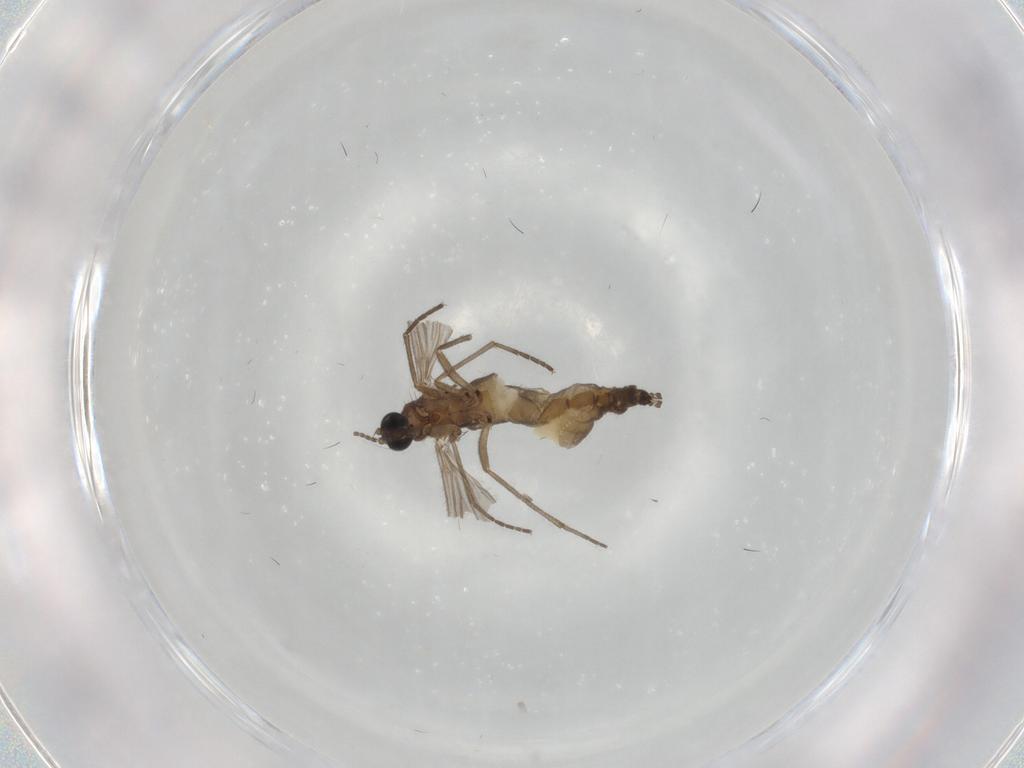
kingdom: Animalia
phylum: Arthropoda
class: Insecta
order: Diptera
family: Sciaridae
